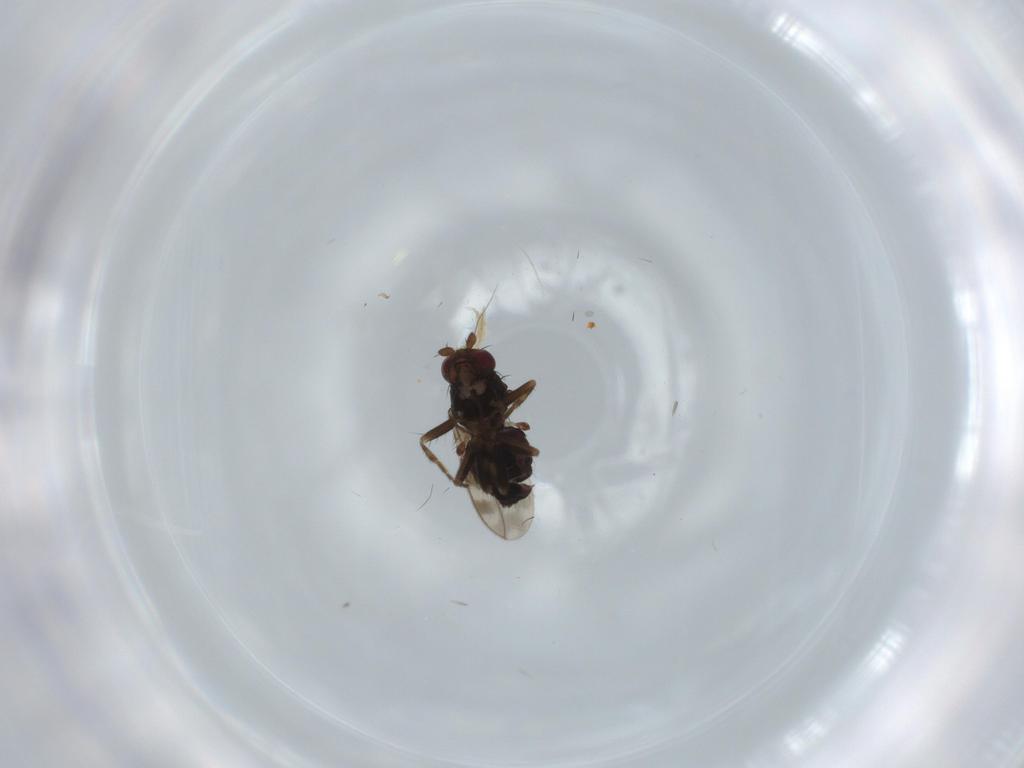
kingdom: Animalia
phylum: Arthropoda
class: Insecta
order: Diptera
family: Sphaeroceridae
